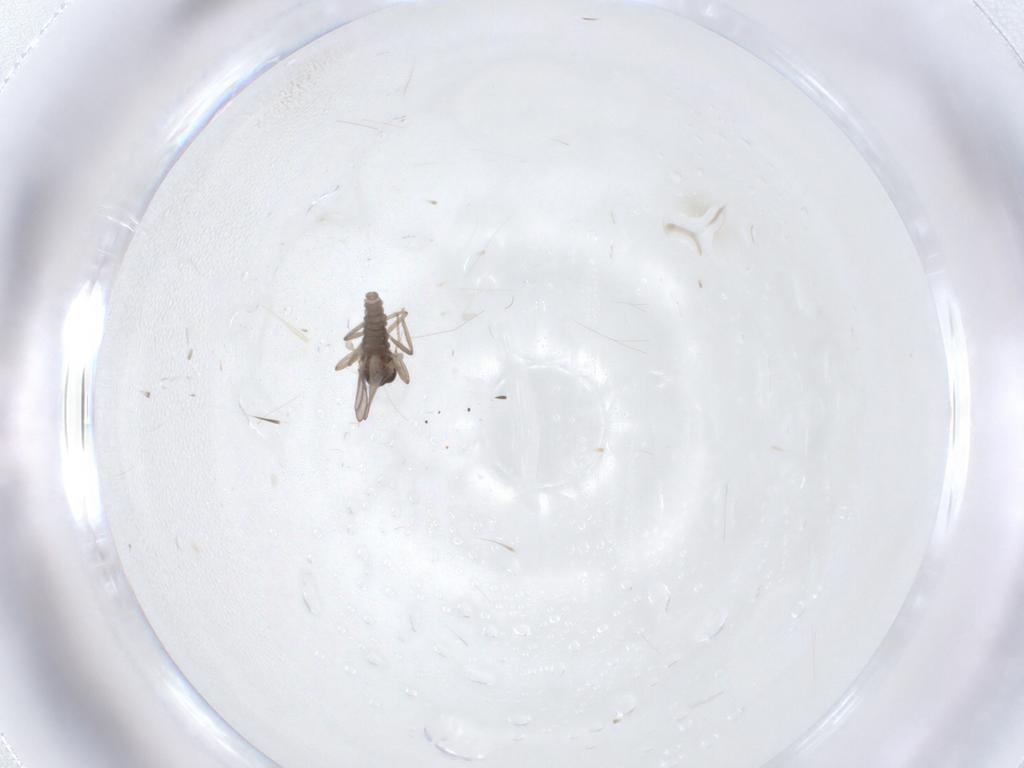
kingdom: Animalia
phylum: Arthropoda
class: Insecta
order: Diptera
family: Cecidomyiidae
